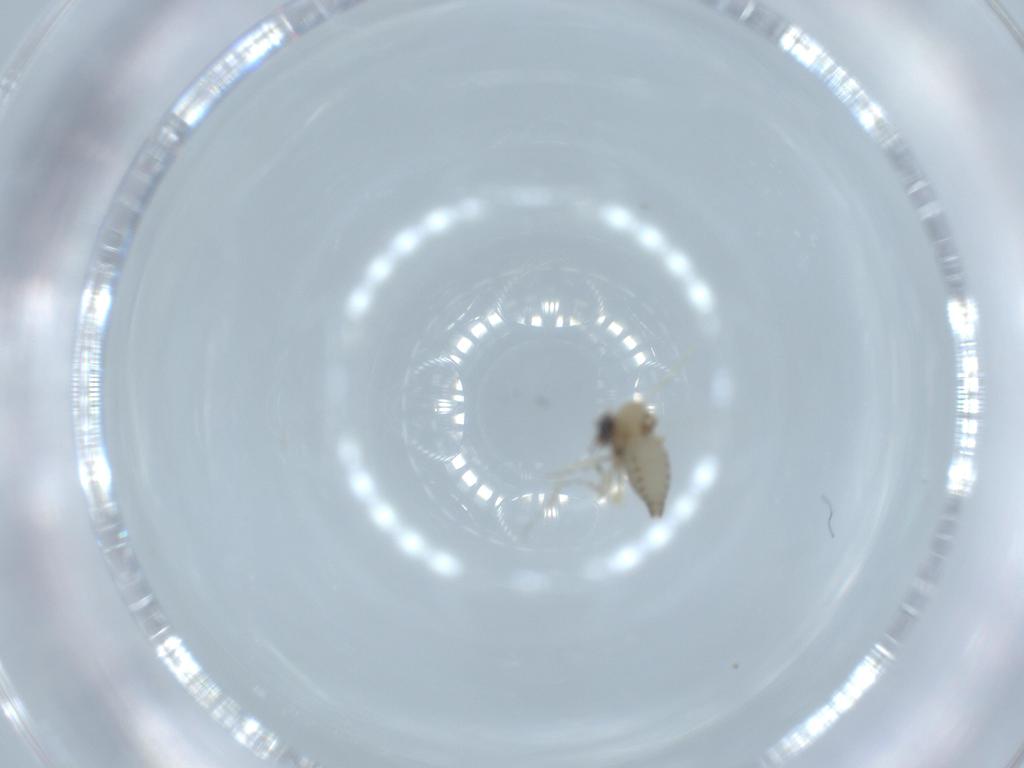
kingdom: Animalia
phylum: Arthropoda
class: Insecta
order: Diptera
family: Ceratopogonidae
